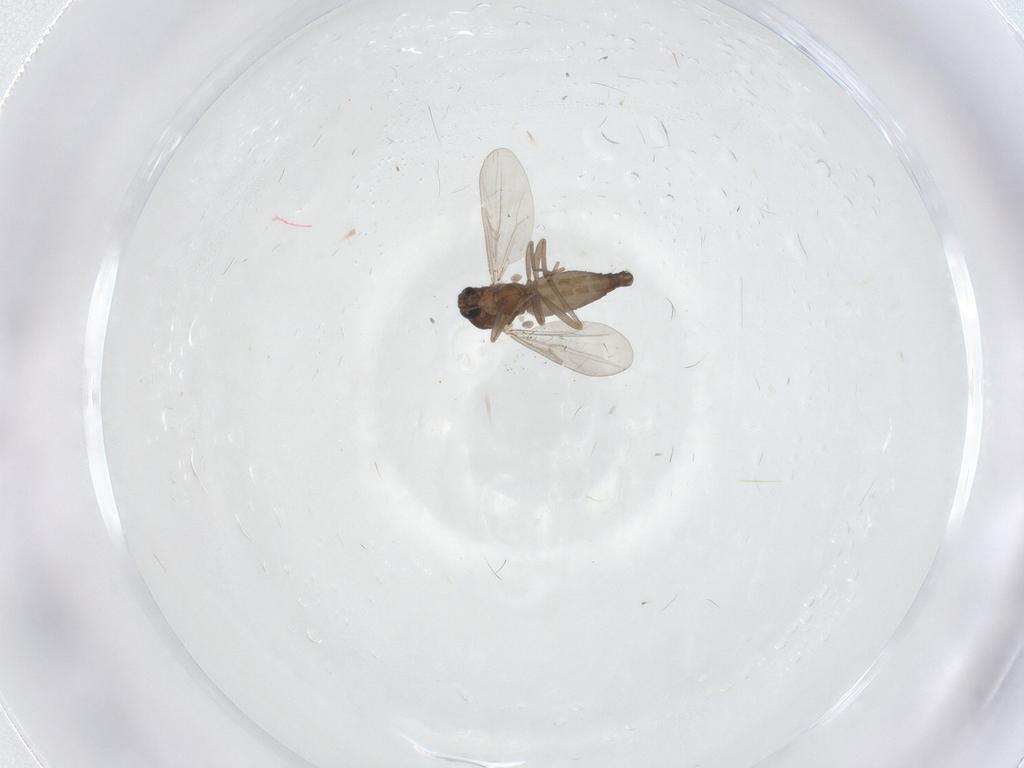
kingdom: Animalia
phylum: Arthropoda
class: Insecta
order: Diptera
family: Ceratopogonidae
